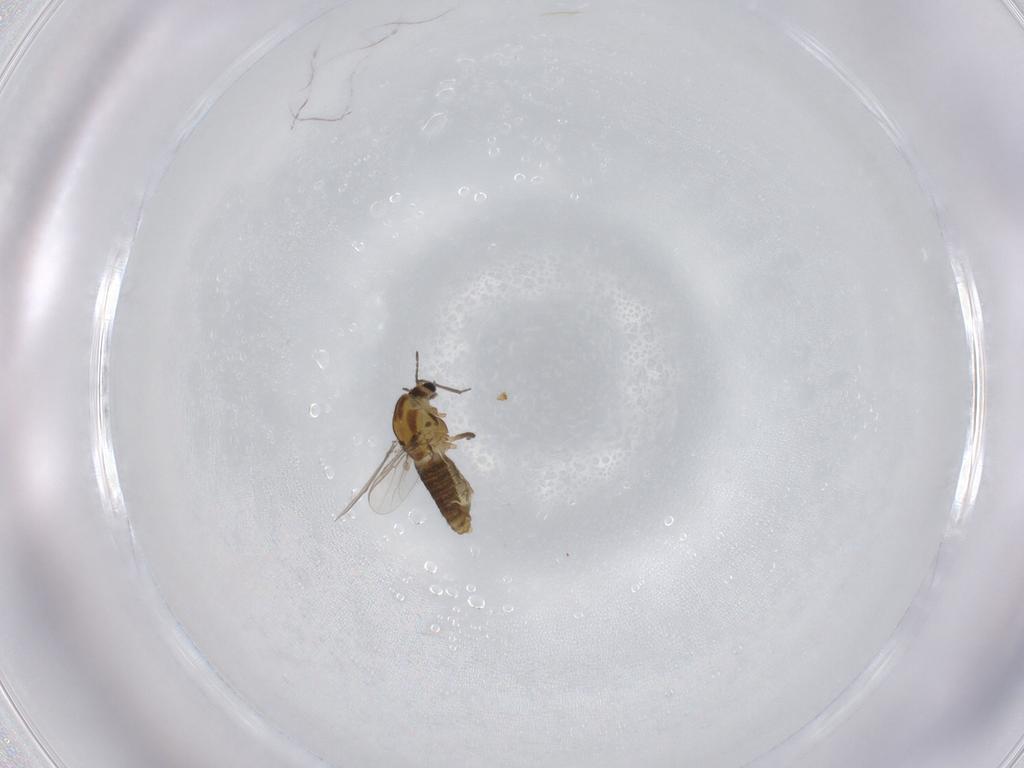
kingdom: Animalia
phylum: Arthropoda
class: Insecta
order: Diptera
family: Chironomidae
